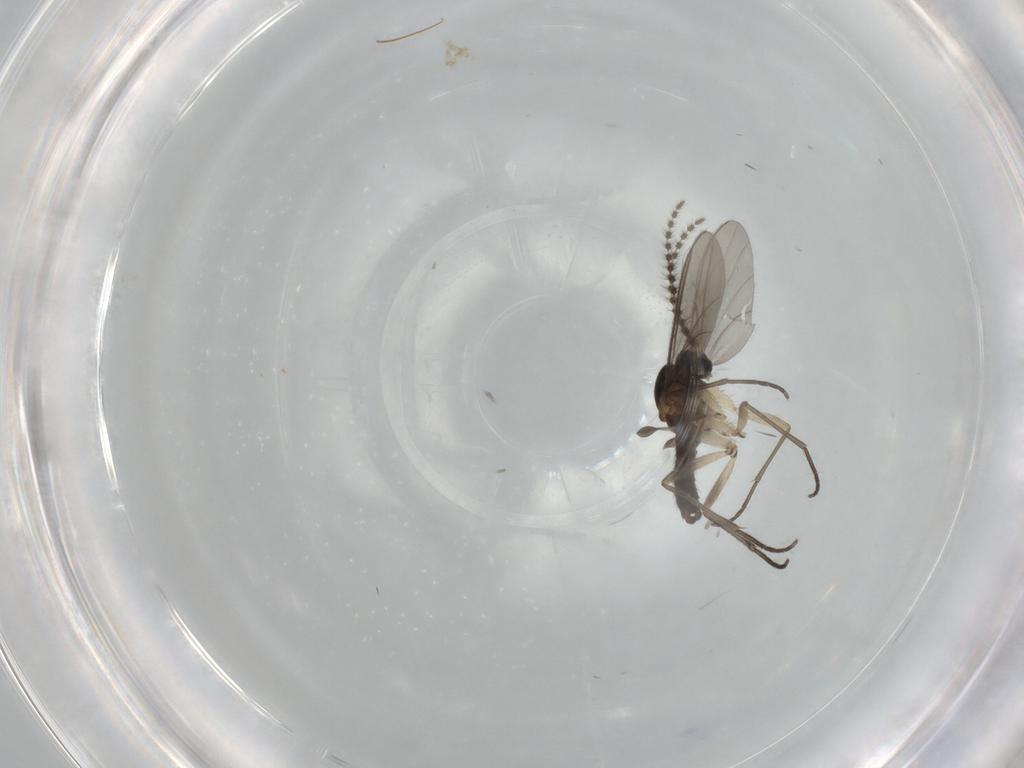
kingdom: Animalia
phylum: Arthropoda
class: Insecta
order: Diptera
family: Sciaridae
